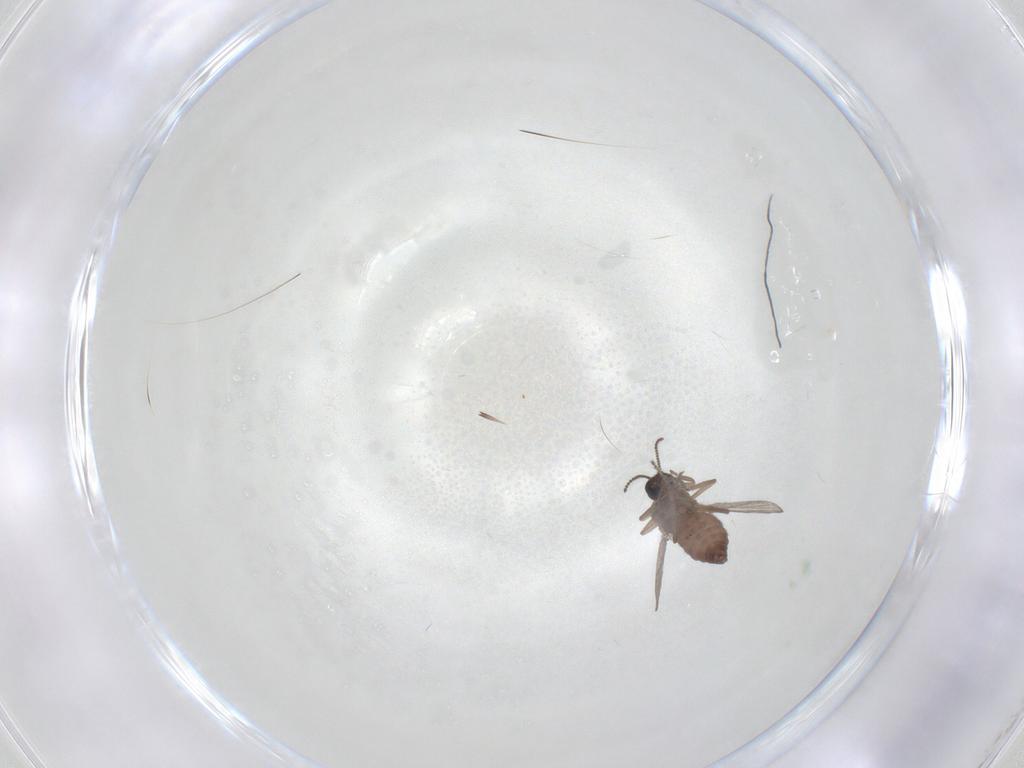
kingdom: Animalia
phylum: Arthropoda
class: Insecta
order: Diptera
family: Ceratopogonidae
